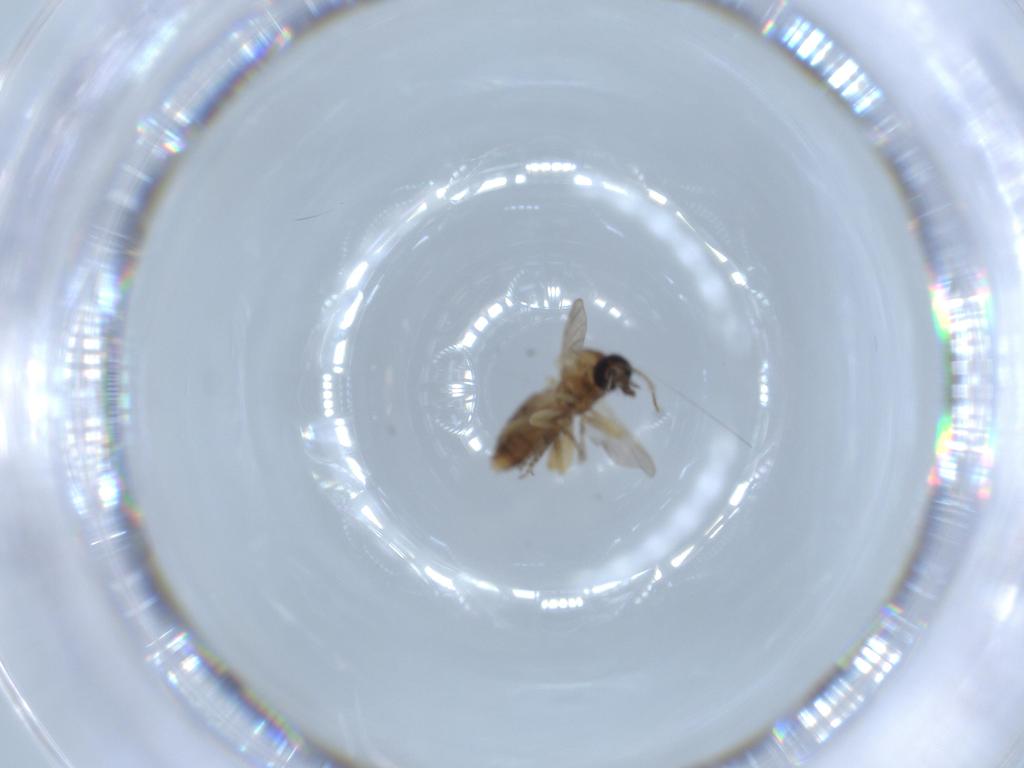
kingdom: Animalia
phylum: Arthropoda
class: Insecta
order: Diptera
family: Ceratopogonidae
